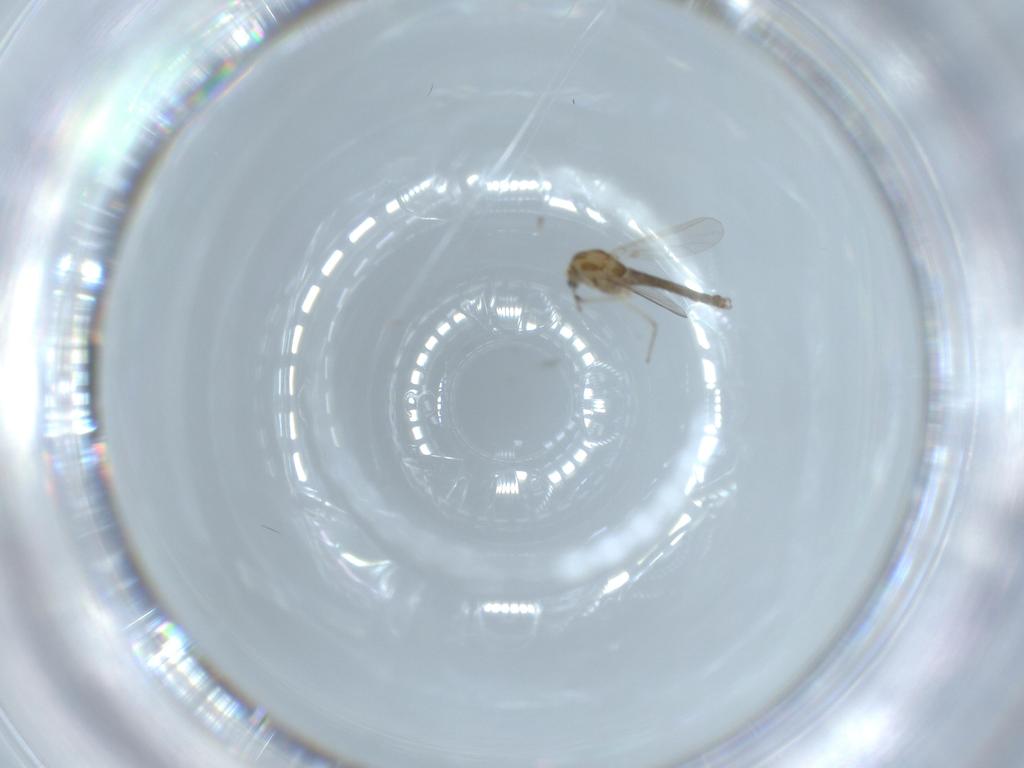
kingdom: Animalia
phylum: Arthropoda
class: Insecta
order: Diptera
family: Chironomidae
